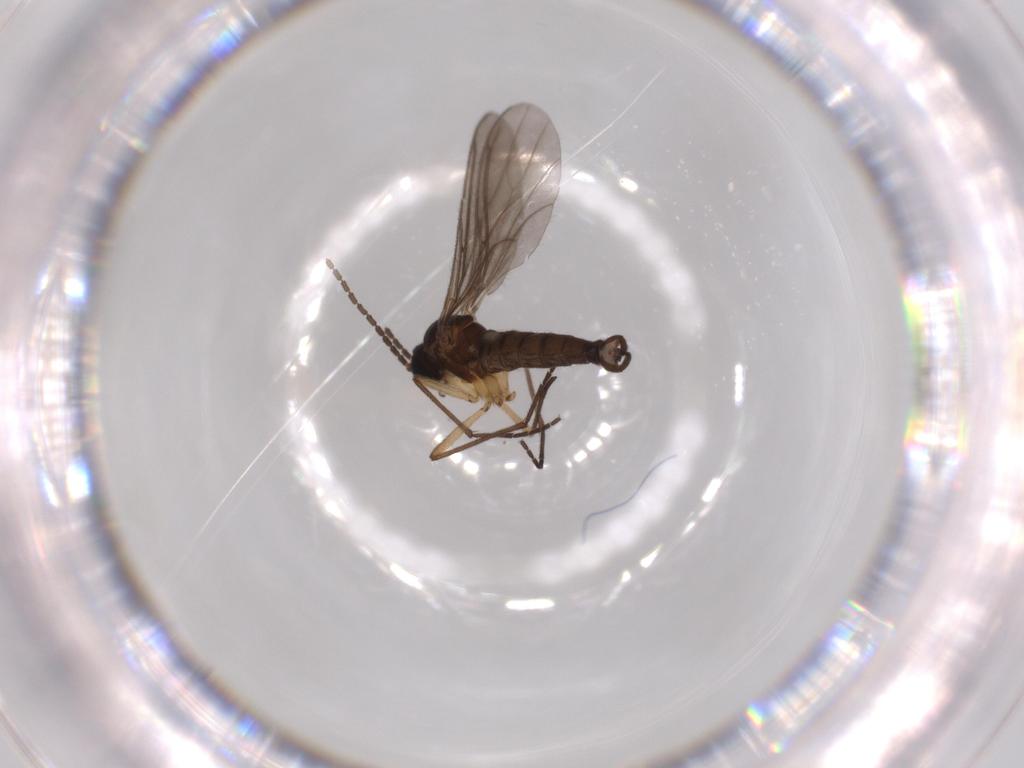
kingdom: Animalia
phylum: Arthropoda
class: Insecta
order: Diptera
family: Sciaridae
